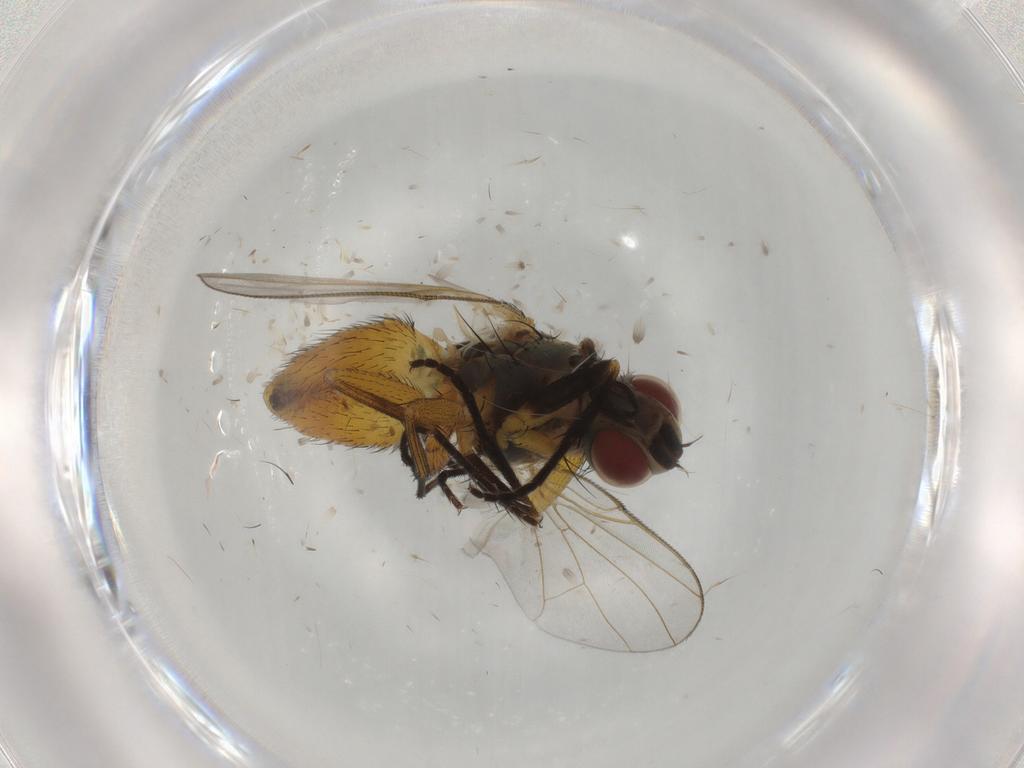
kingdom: Animalia
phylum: Arthropoda
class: Insecta
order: Diptera
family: Muscidae
